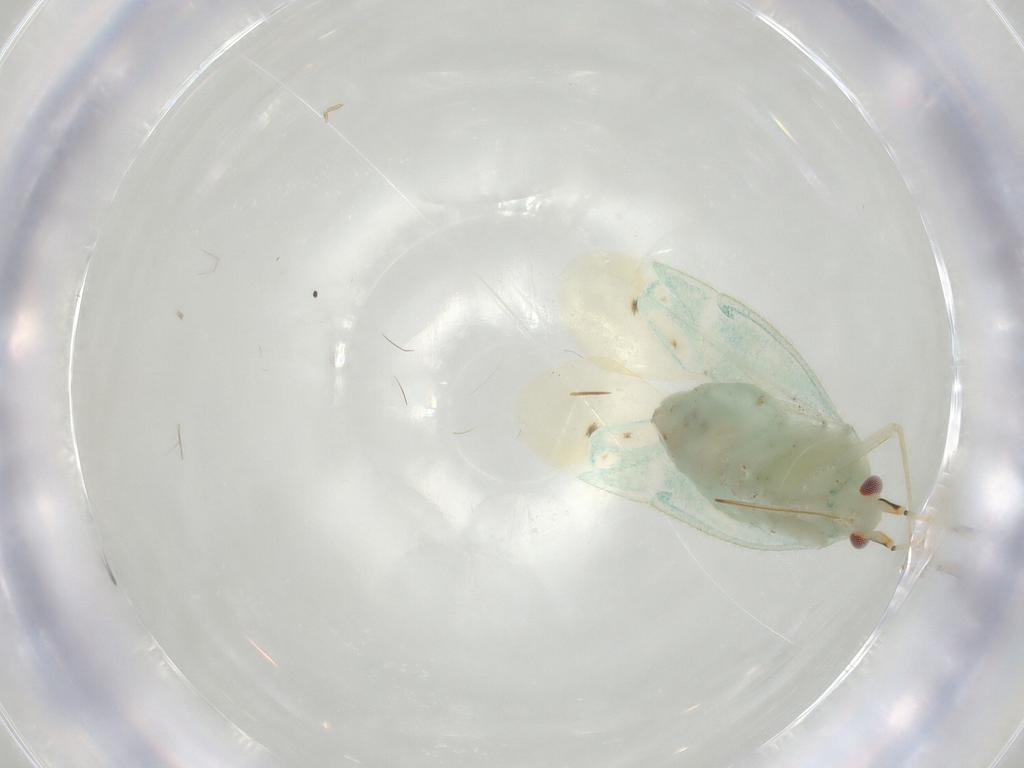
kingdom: Animalia
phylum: Arthropoda
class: Insecta
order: Hemiptera
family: Miridae
